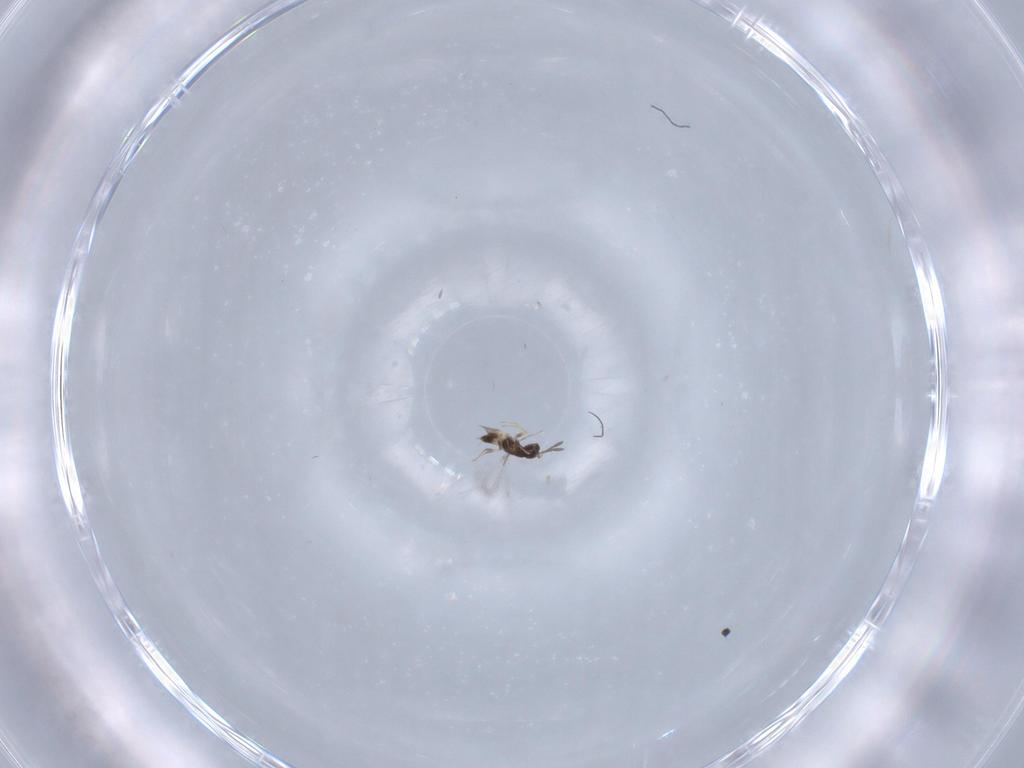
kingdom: Animalia
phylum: Arthropoda
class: Insecta
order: Hymenoptera
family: Mymaridae
